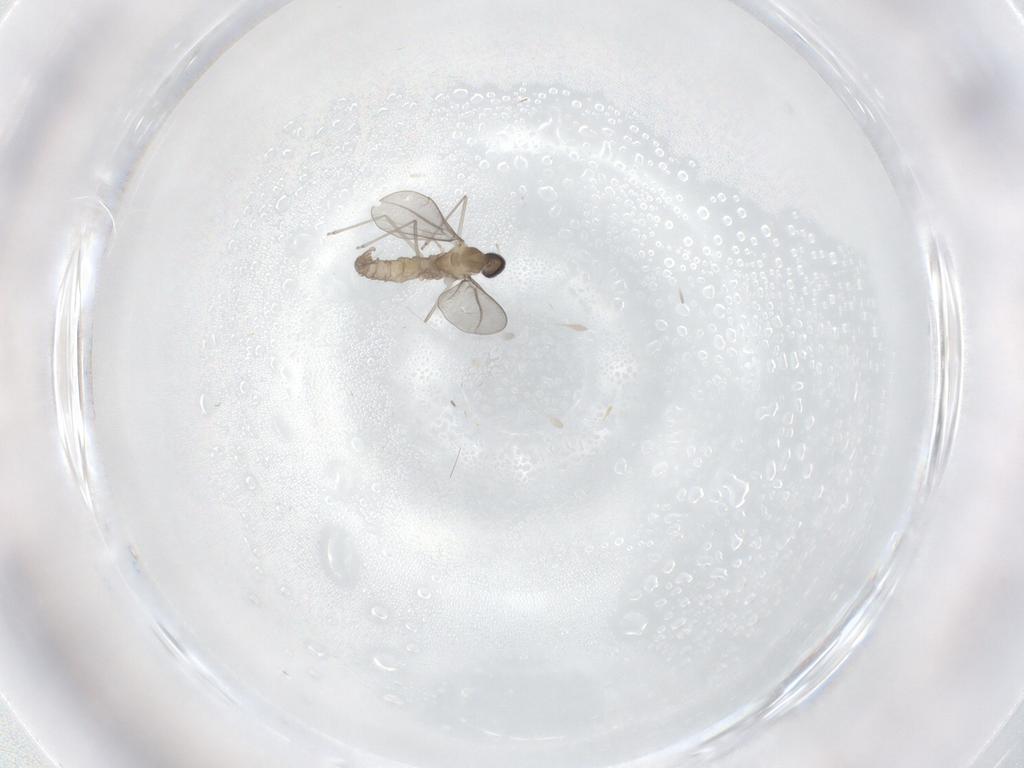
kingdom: Animalia
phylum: Arthropoda
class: Insecta
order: Diptera
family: Cecidomyiidae
